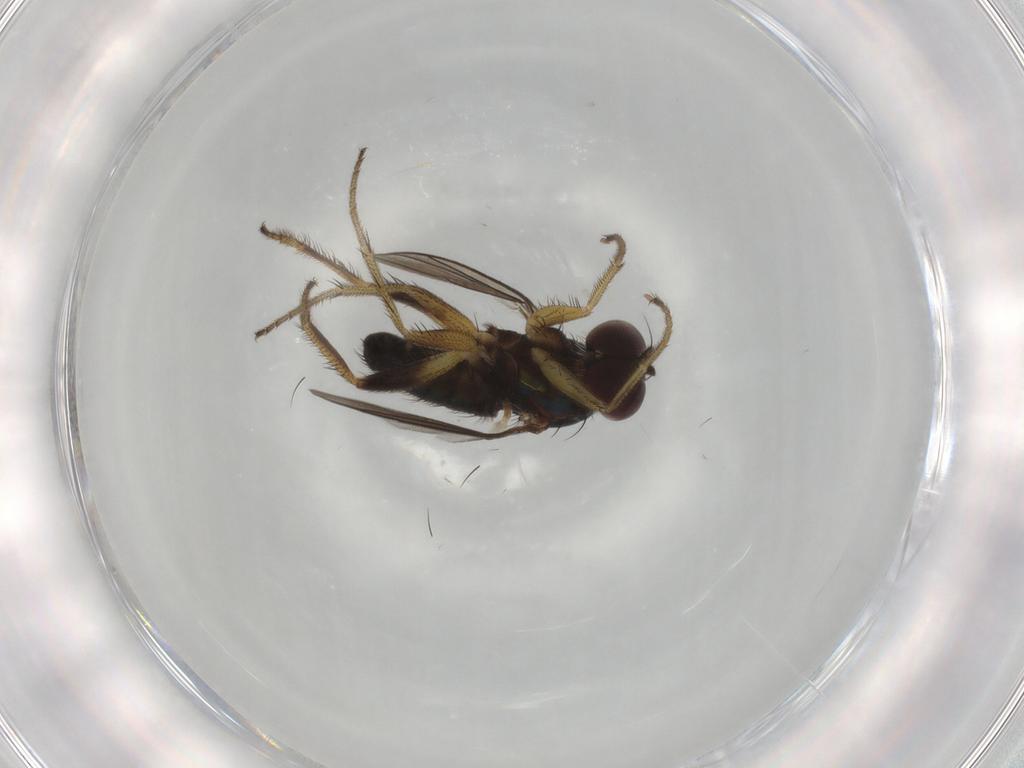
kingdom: Animalia
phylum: Arthropoda
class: Insecta
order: Diptera
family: Dolichopodidae
